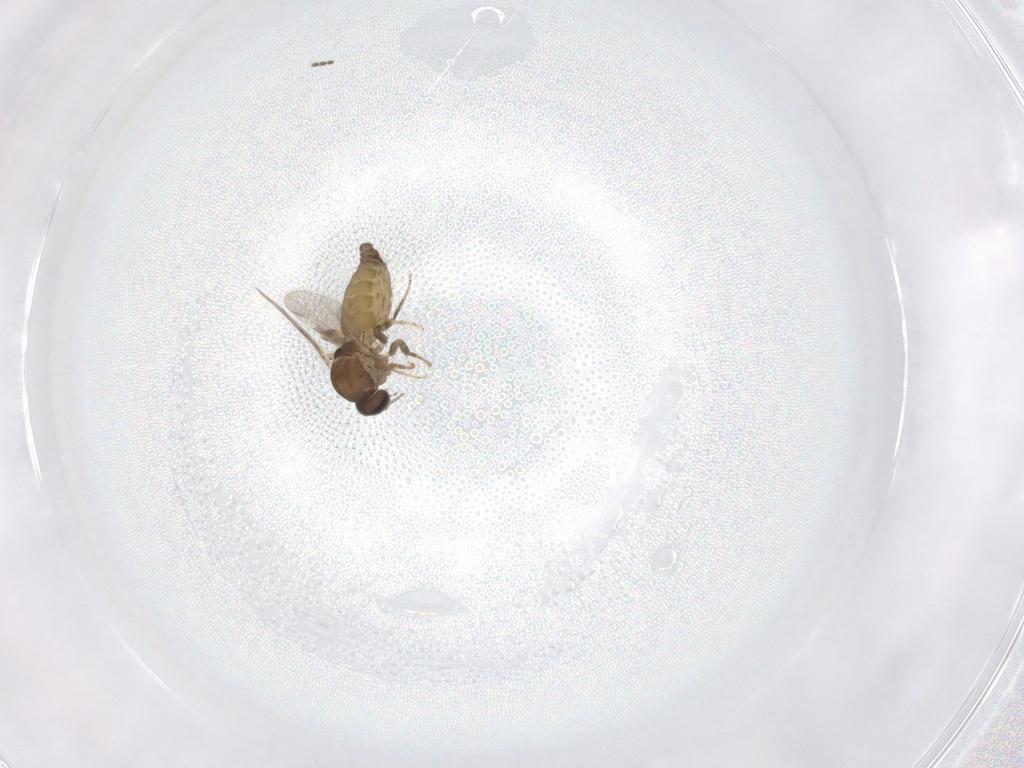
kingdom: Animalia
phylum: Arthropoda
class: Insecta
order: Diptera
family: Ceratopogonidae
